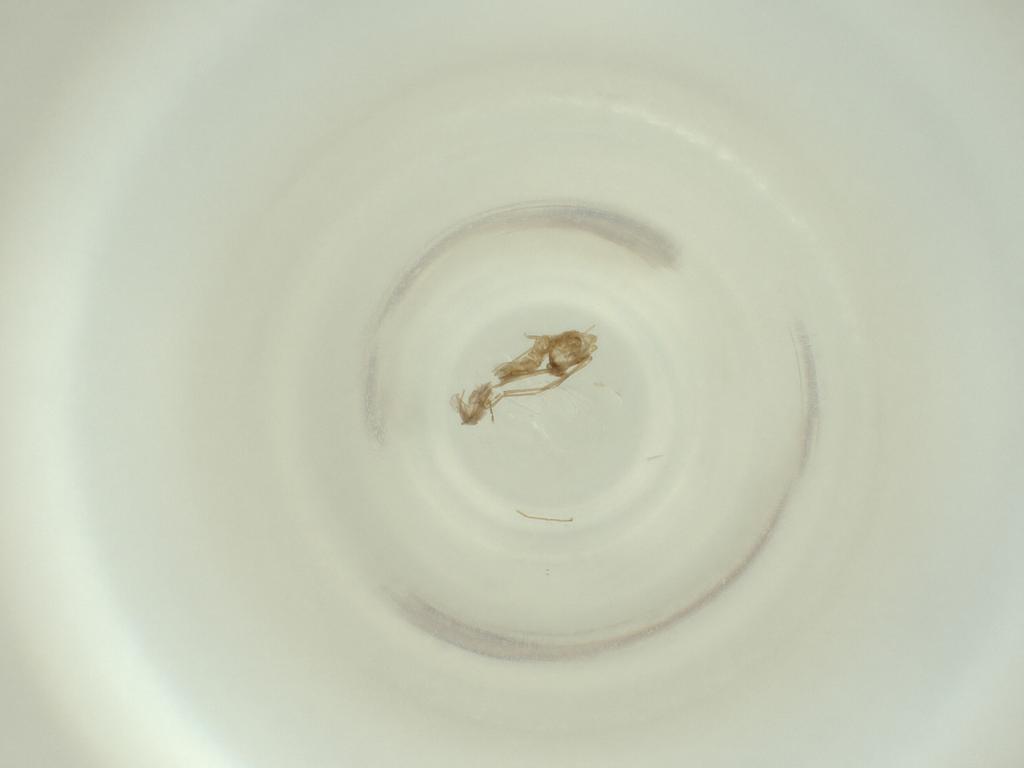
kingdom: Animalia
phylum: Arthropoda
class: Insecta
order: Diptera
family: Cecidomyiidae
